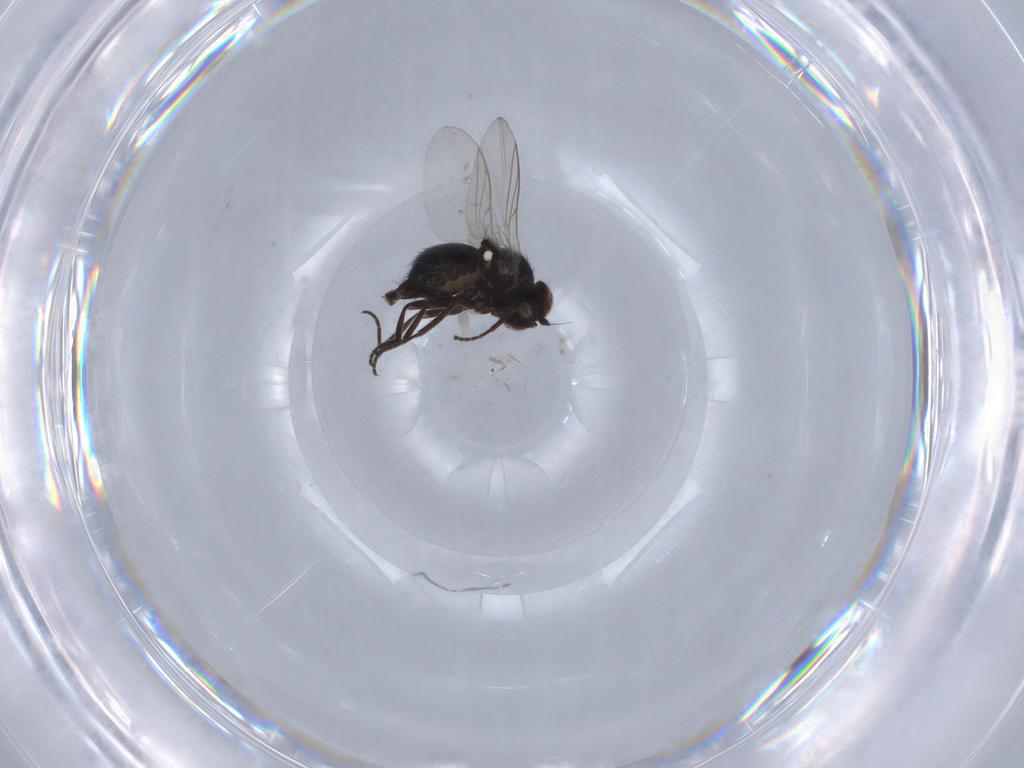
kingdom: Animalia
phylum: Arthropoda
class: Insecta
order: Diptera
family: Agromyzidae
